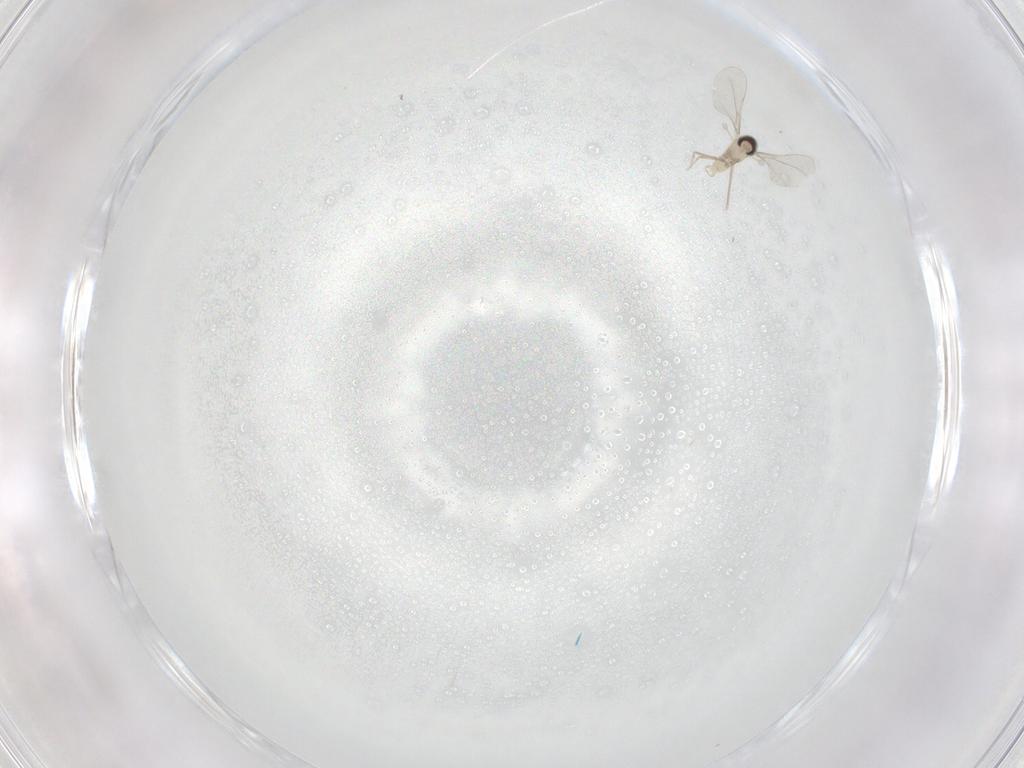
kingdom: Animalia
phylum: Arthropoda
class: Insecta
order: Diptera
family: Cecidomyiidae
